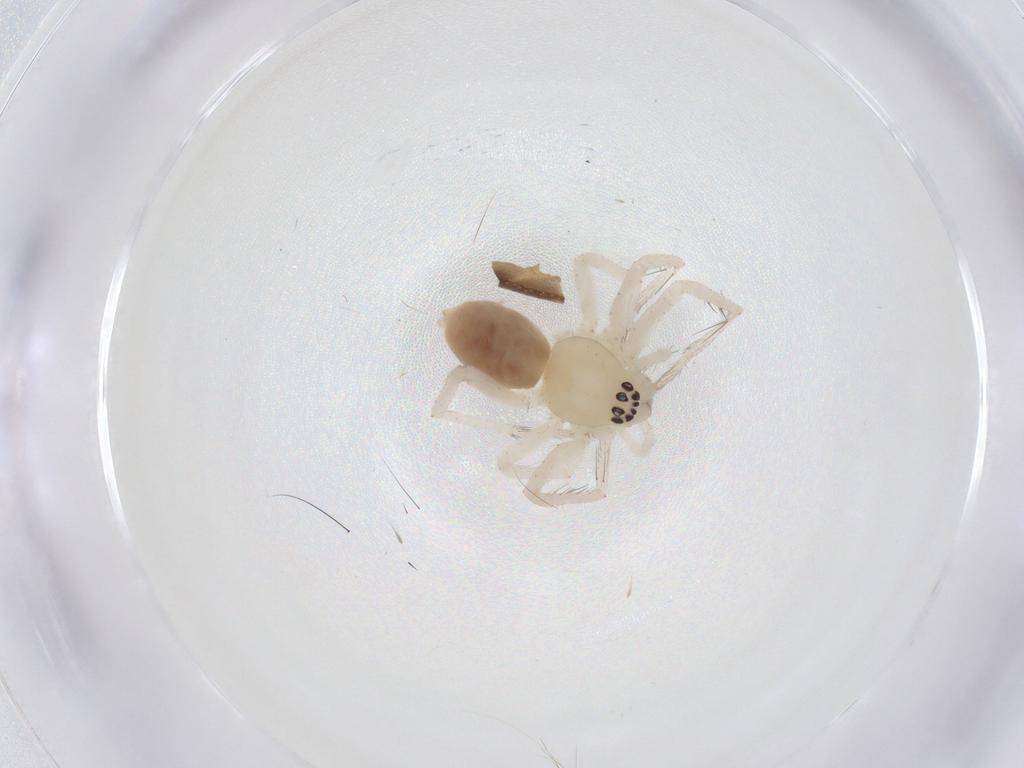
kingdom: Animalia
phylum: Arthropoda
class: Arachnida
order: Araneae
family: Anyphaenidae
